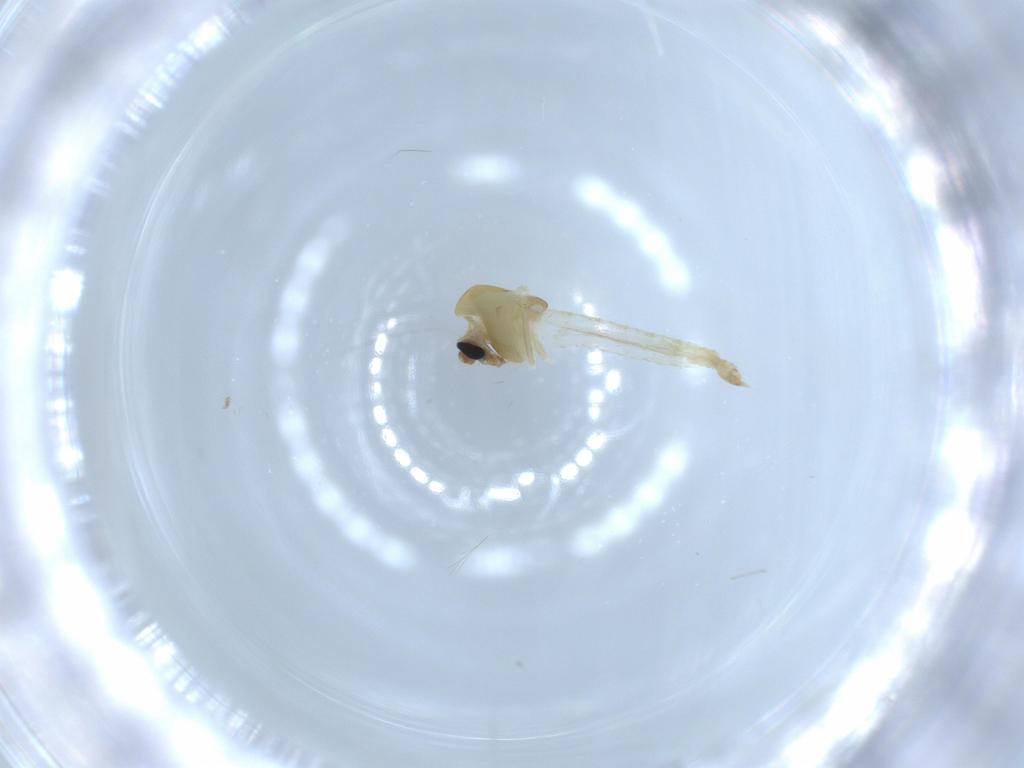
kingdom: Animalia
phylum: Arthropoda
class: Insecta
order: Diptera
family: Chironomidae
